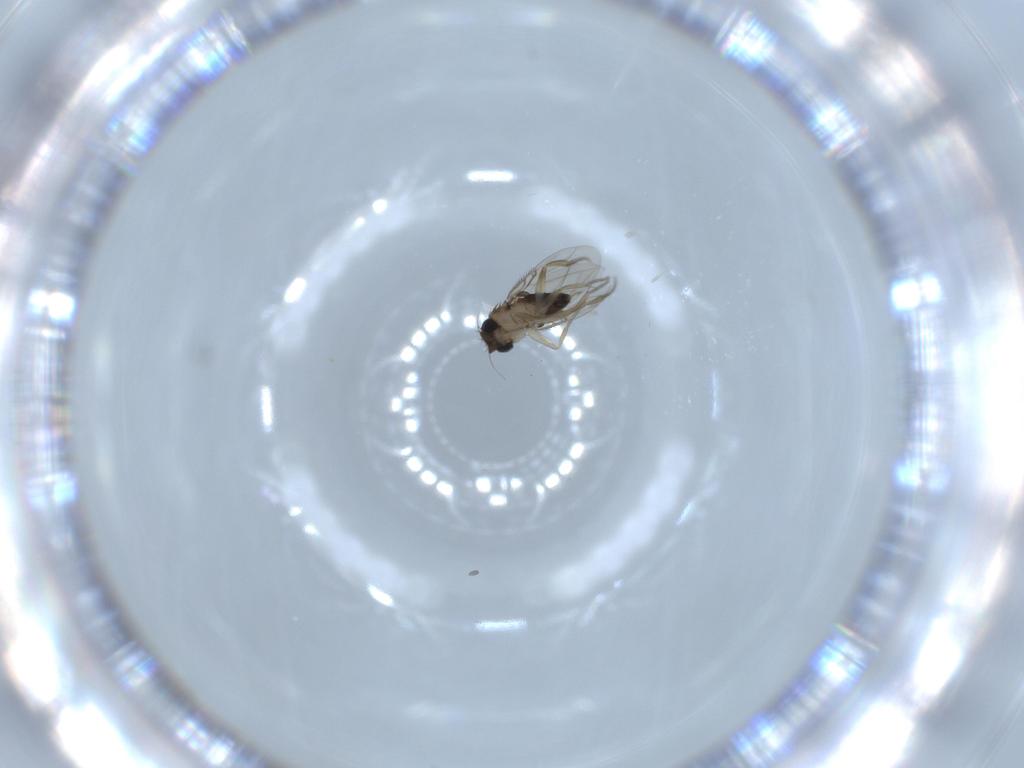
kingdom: Animalia
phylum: Arthropoda
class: Insecta
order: Diptera
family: Phoridae
